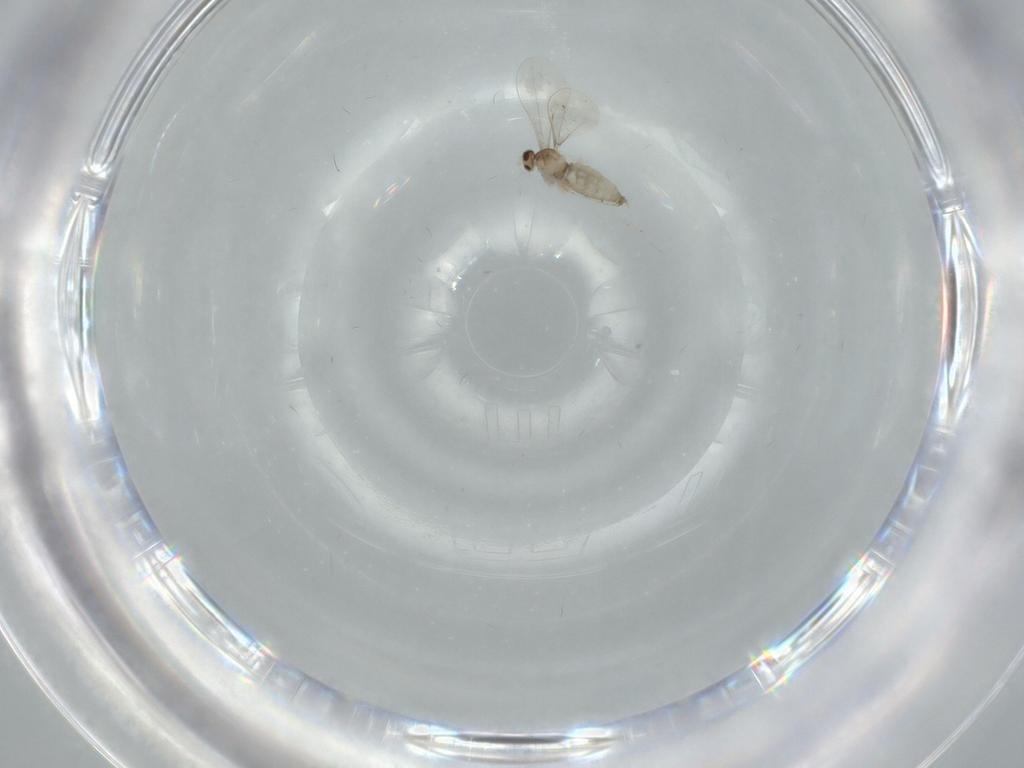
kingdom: Animalia
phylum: Arthropoda
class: Insecta
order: Diptera
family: Cecidomyiidae
